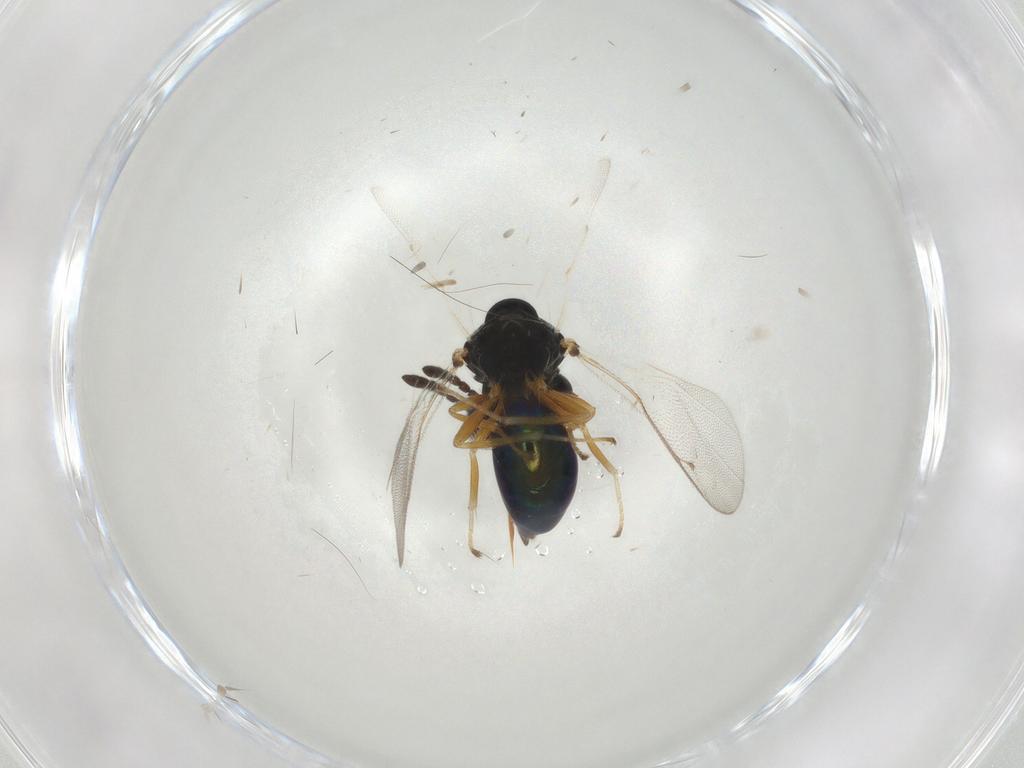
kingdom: Animalia
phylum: Arthropoda
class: Insecta
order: Hymenoptera
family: Pteromalidae
